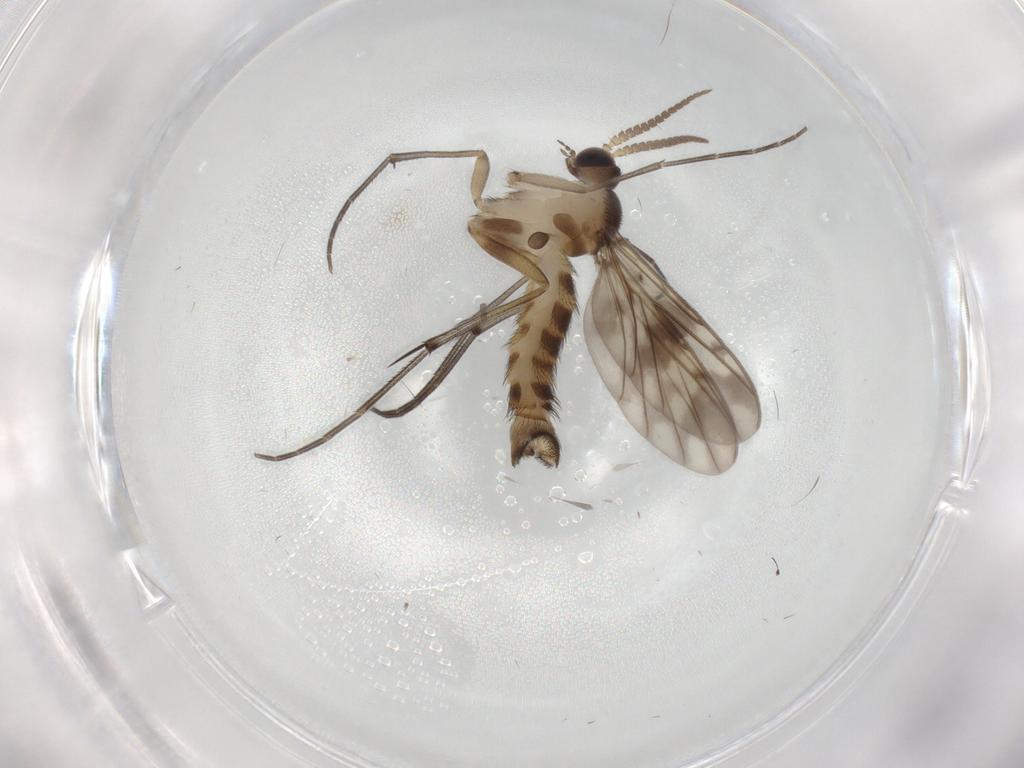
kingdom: Animalia
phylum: Arthropoda
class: Insecta
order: Diptera
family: Keroplatidae
